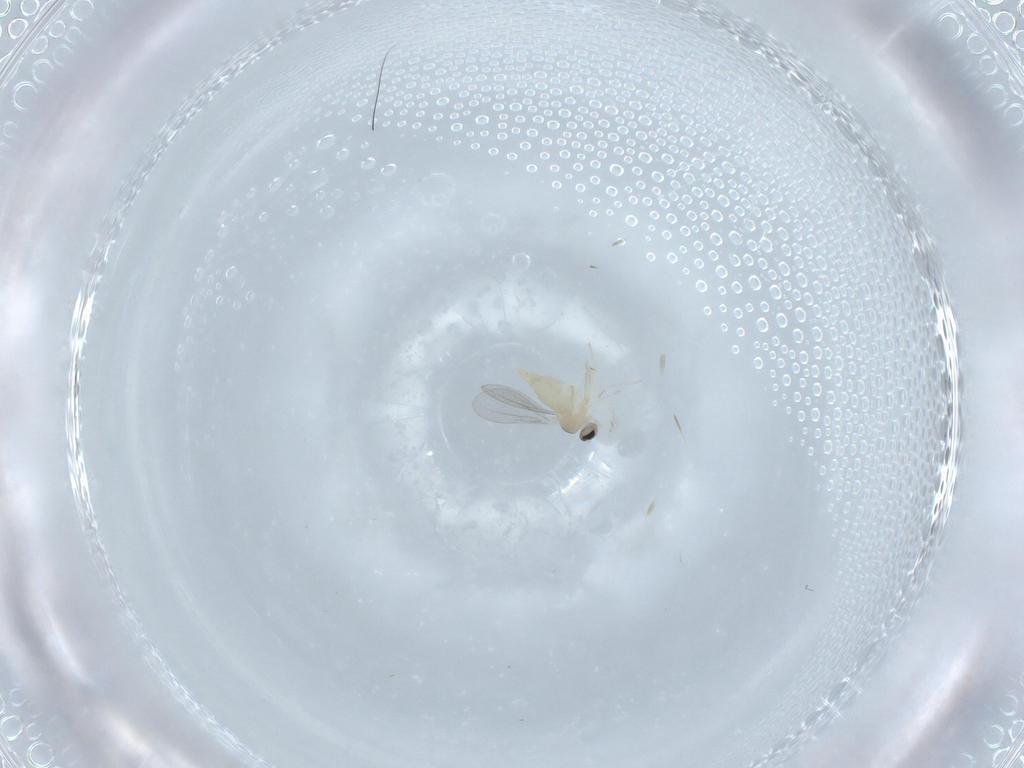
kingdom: Animalia
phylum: Arthropoda
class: Insecta
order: Diptera
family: Cecidomyiidae
